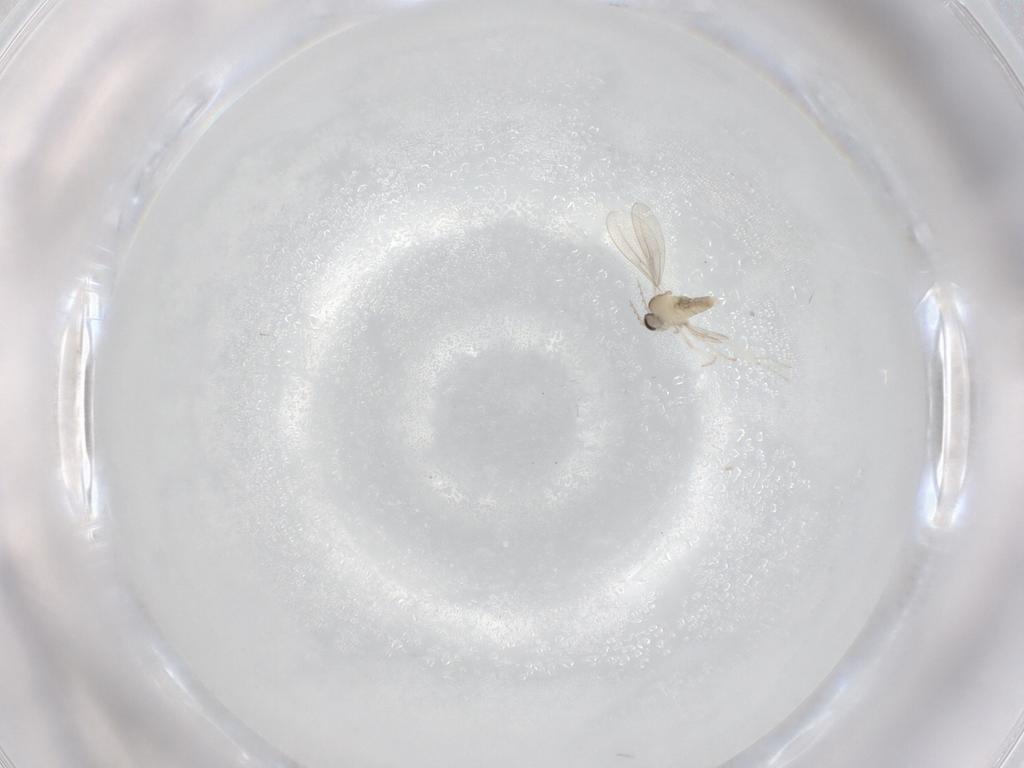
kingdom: Animalia
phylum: Arthropoda
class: Insecta
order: Diptera
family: Cecidomyiidae
